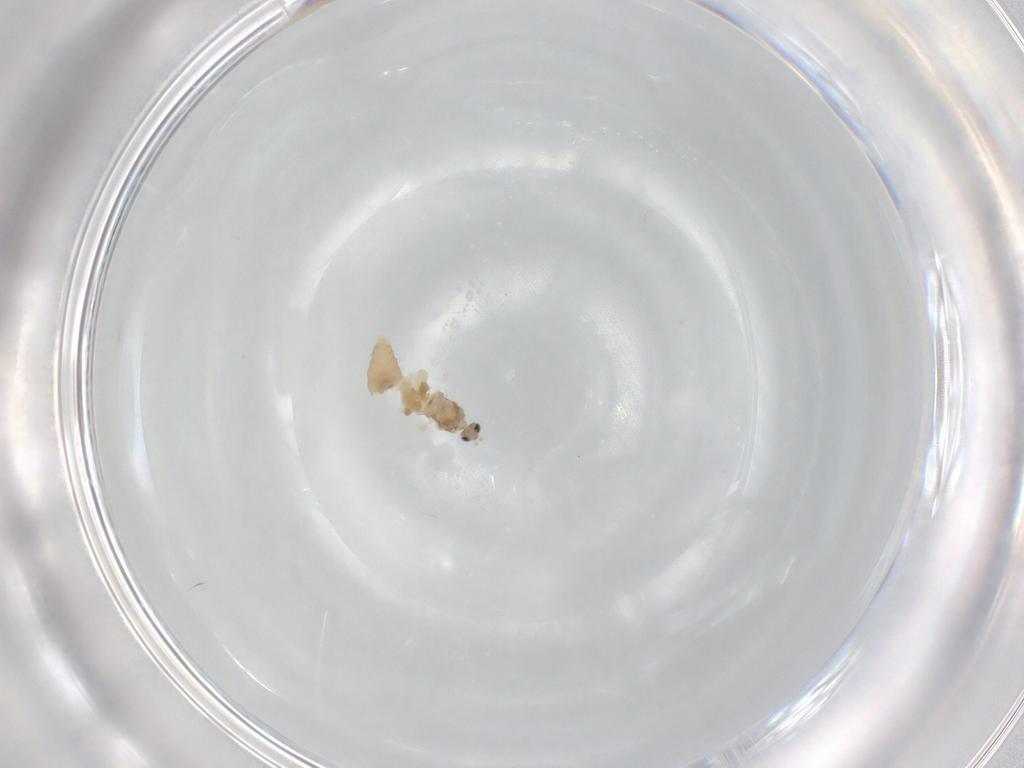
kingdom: Animalia
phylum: Arthropoda
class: Insecta
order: Diptera
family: Cecidomyiidae
